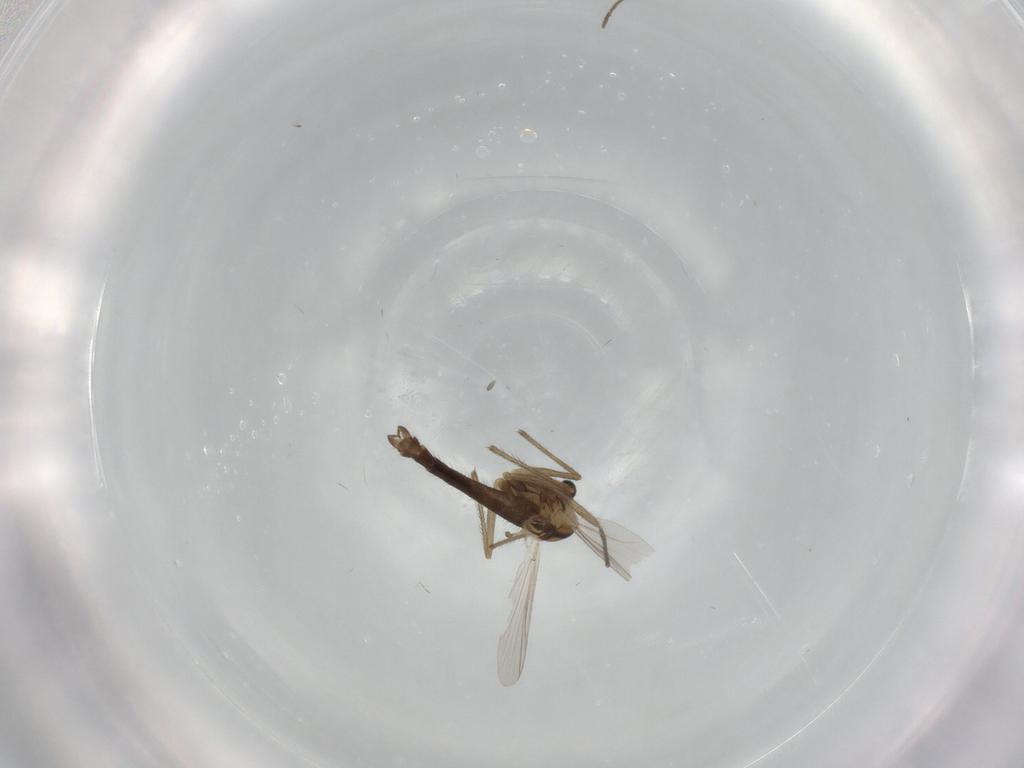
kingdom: Animalia
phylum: Arthropoda
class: Insecta
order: Diptera
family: Chironomidae
